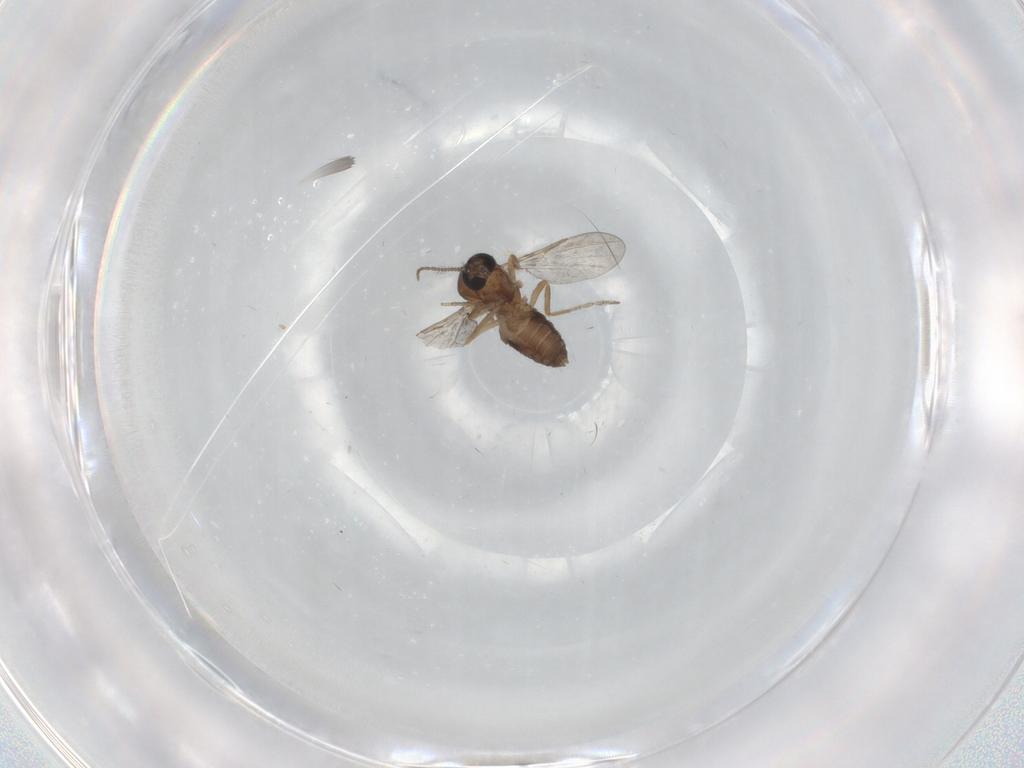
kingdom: Animalia
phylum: Arthropoda
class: Insecta
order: Diptera
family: Ceratopogonidae
